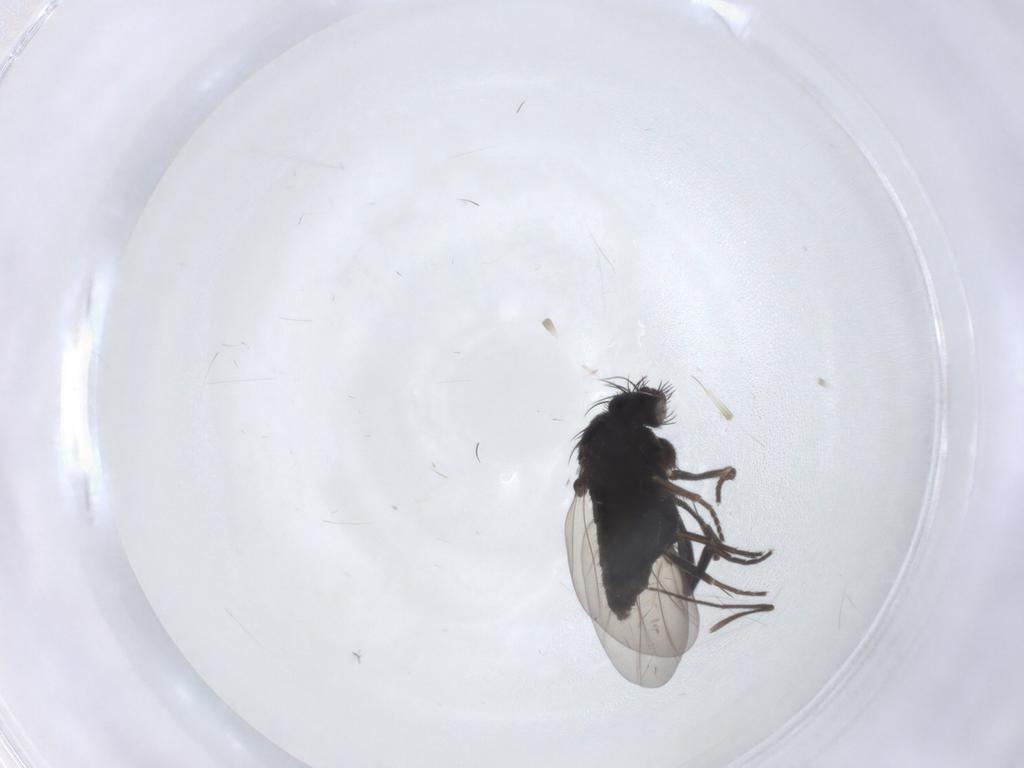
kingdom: Animalia
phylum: Arthropoda
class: Insecta
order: Diptera
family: Phoridae
